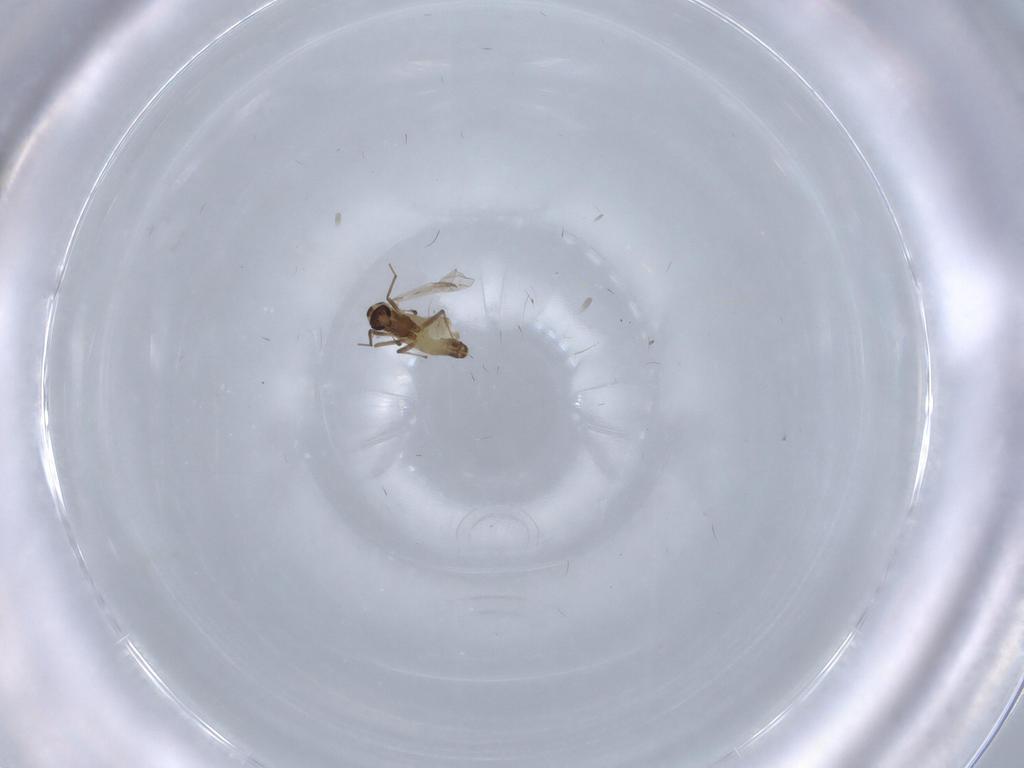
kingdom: Animalia
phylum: Arthropoda
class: Insecta
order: Diptera
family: Chironomidae
